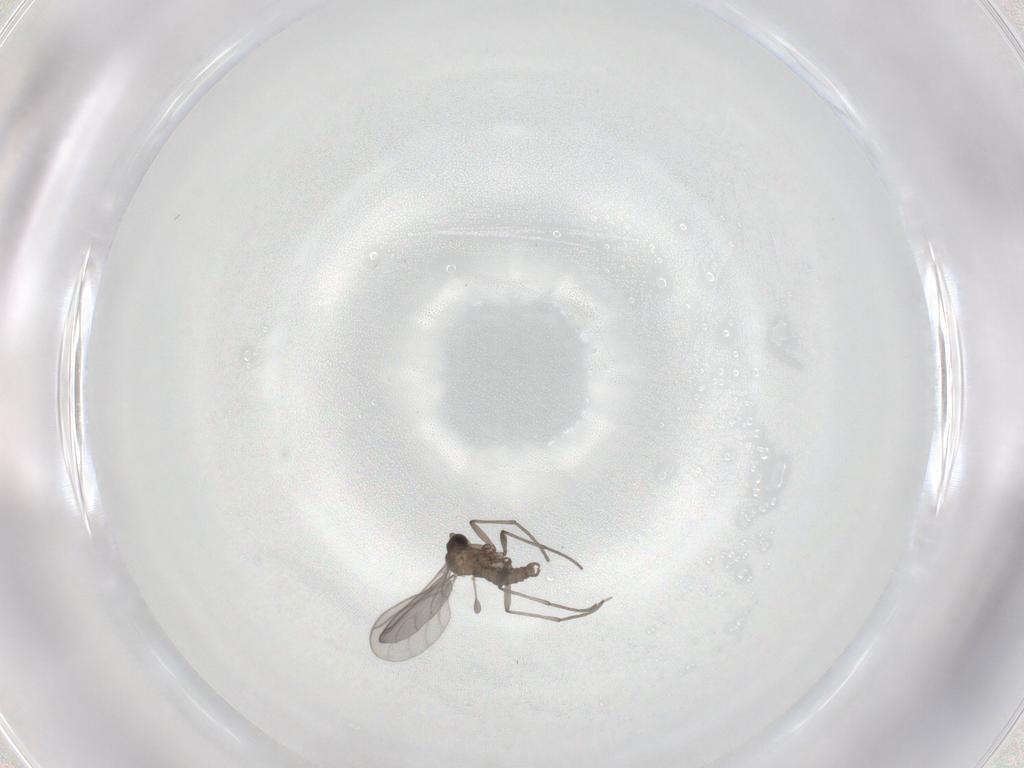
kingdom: Animalia
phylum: Arthropoda
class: Insecta
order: Diptera
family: Sciaridae
